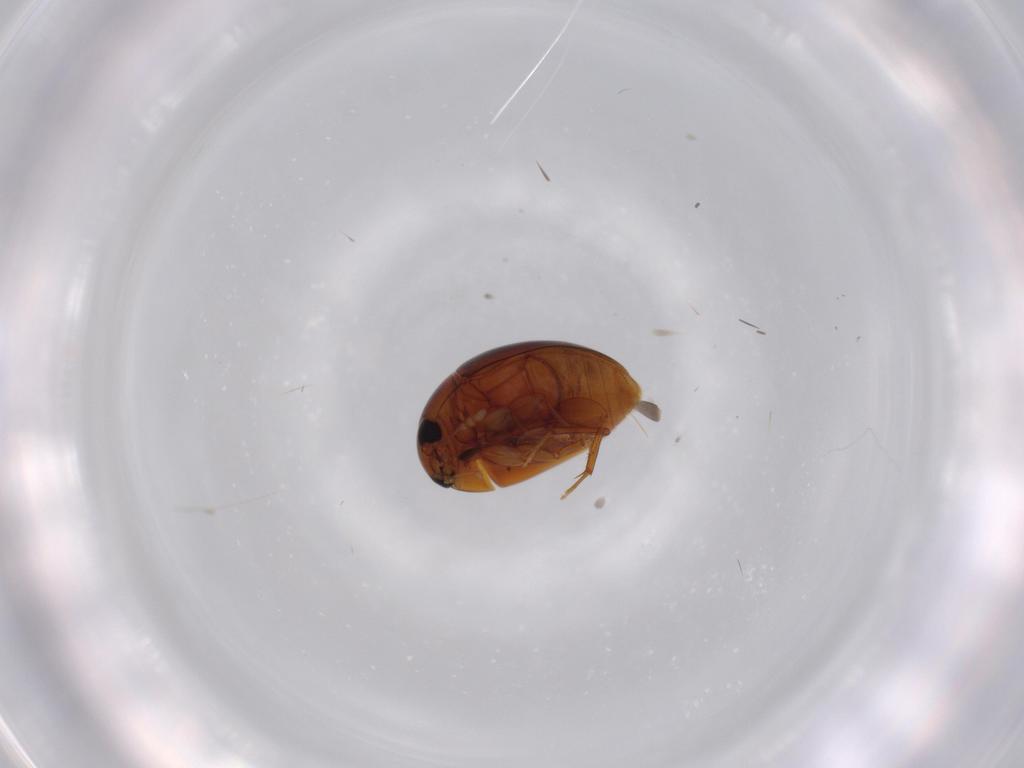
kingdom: Animalia
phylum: Arthropoda
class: Insecta
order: Coleoptera
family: Phalacridae
